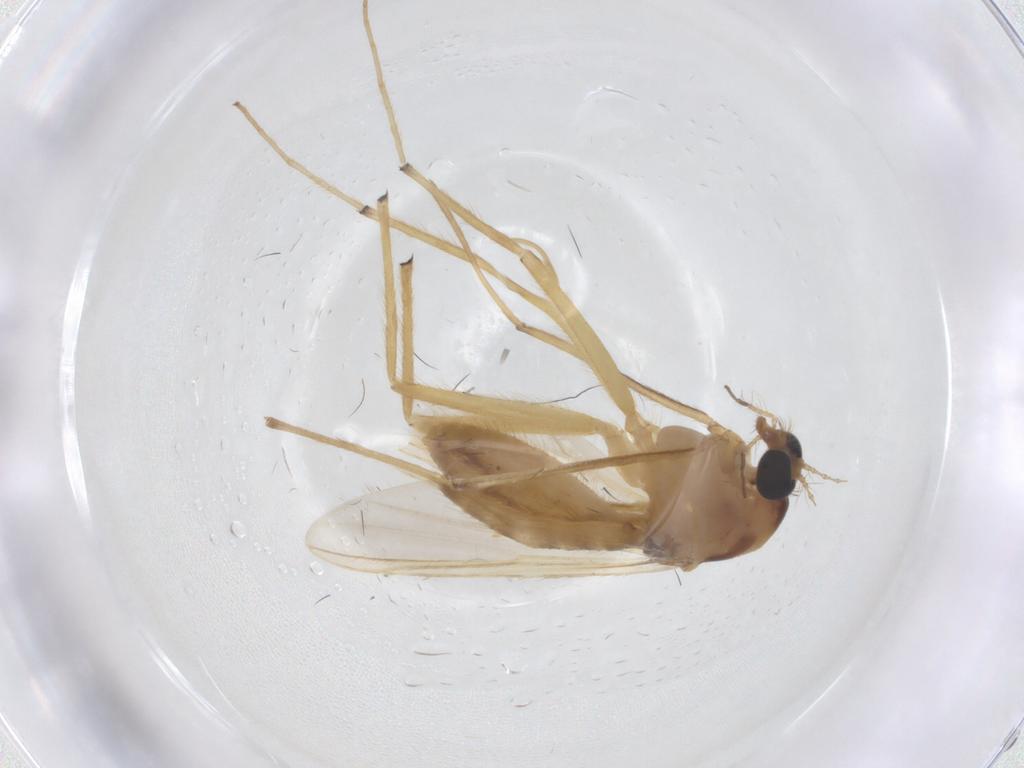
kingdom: Animalia
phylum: Arthropoda
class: Insecta
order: Diptera
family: Chironomidae
